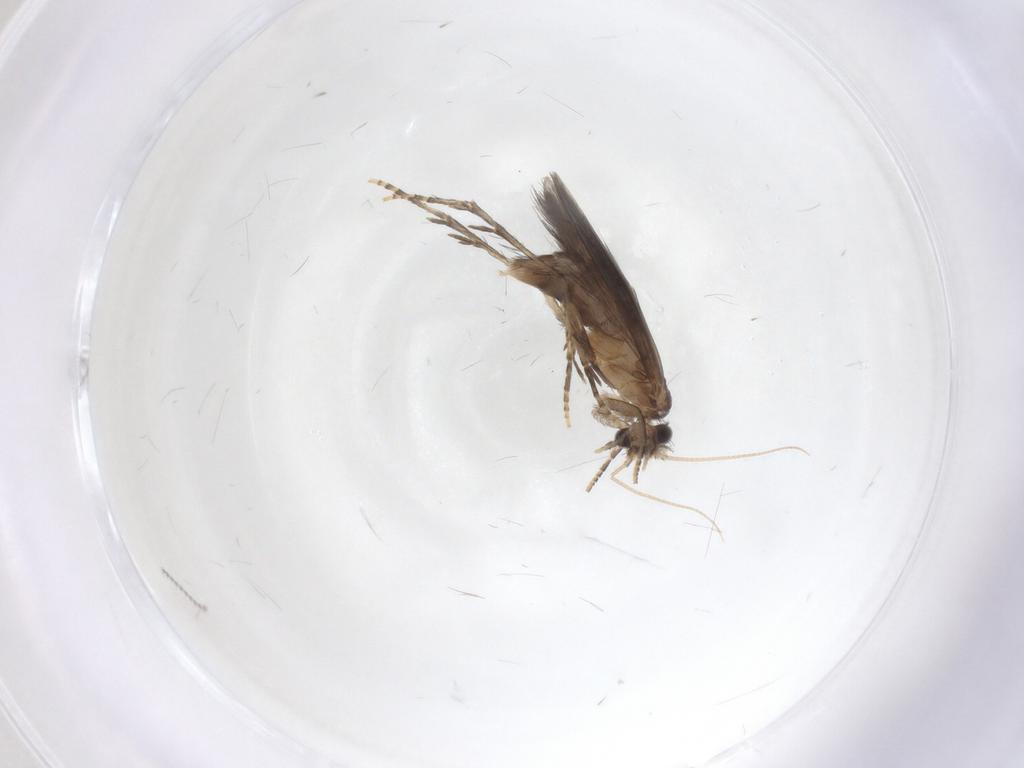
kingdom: Animalia
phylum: Arthropoda
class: Insecta
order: Trichoptera
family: Hydroptilidae
